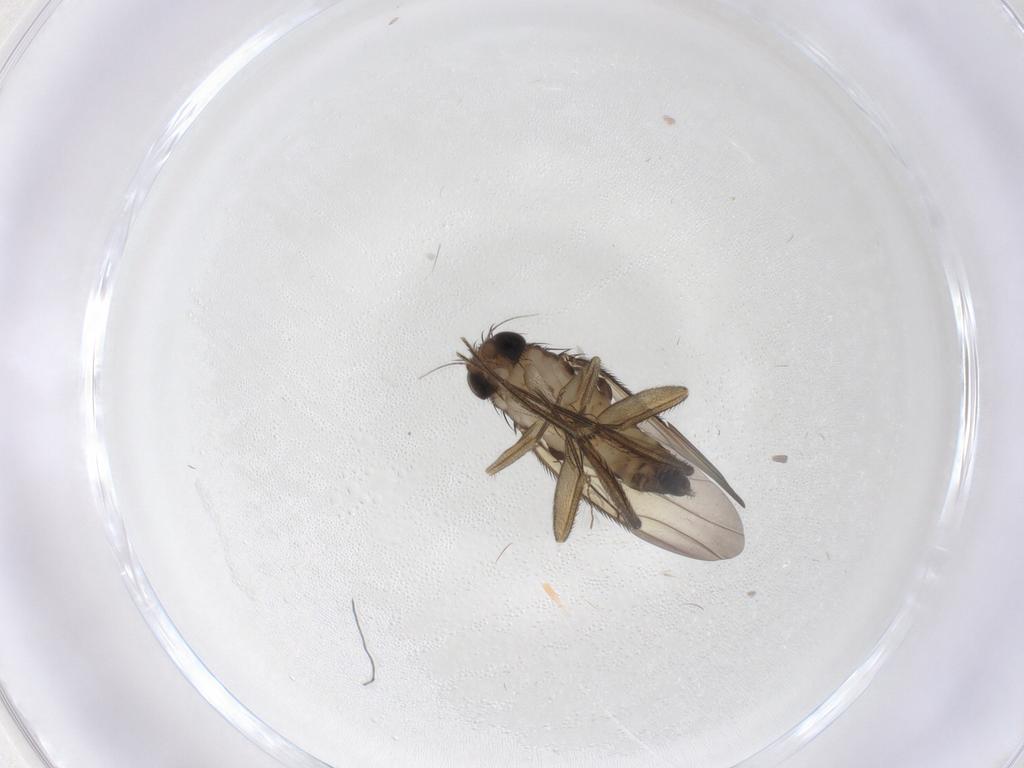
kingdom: Animalia
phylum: Arthropoda
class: Insecta
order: Diptera
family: Phoridae
